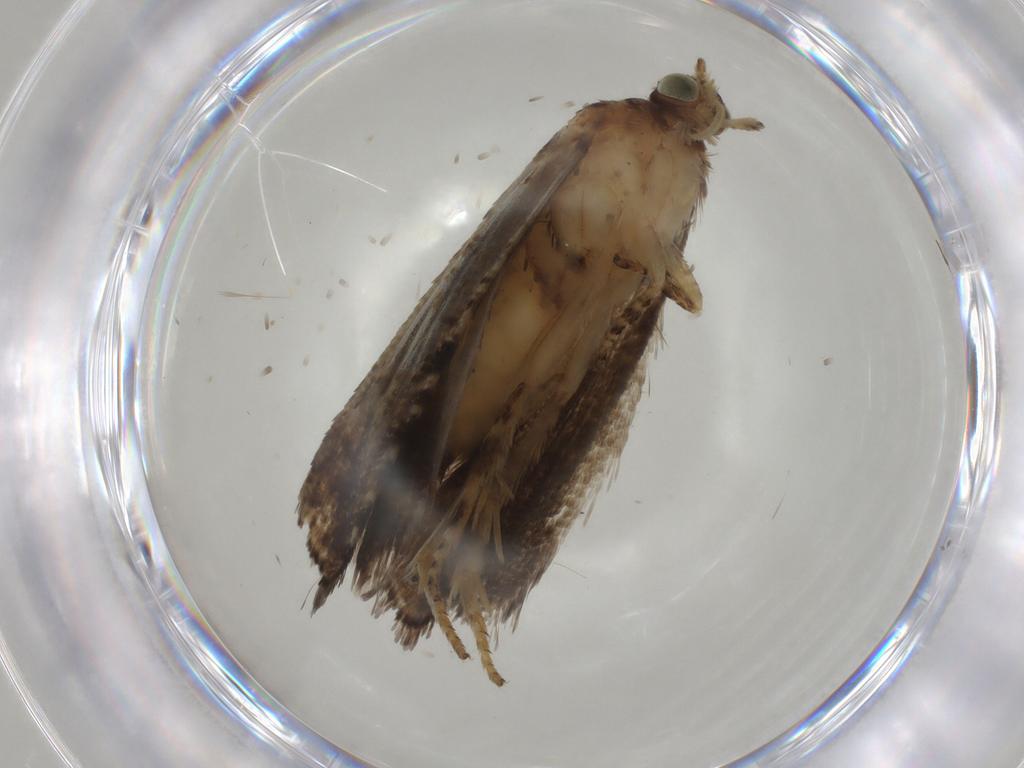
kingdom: Animalia
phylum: Arthropoda
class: Insecta
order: Lepidoptera
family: Tortricidae
